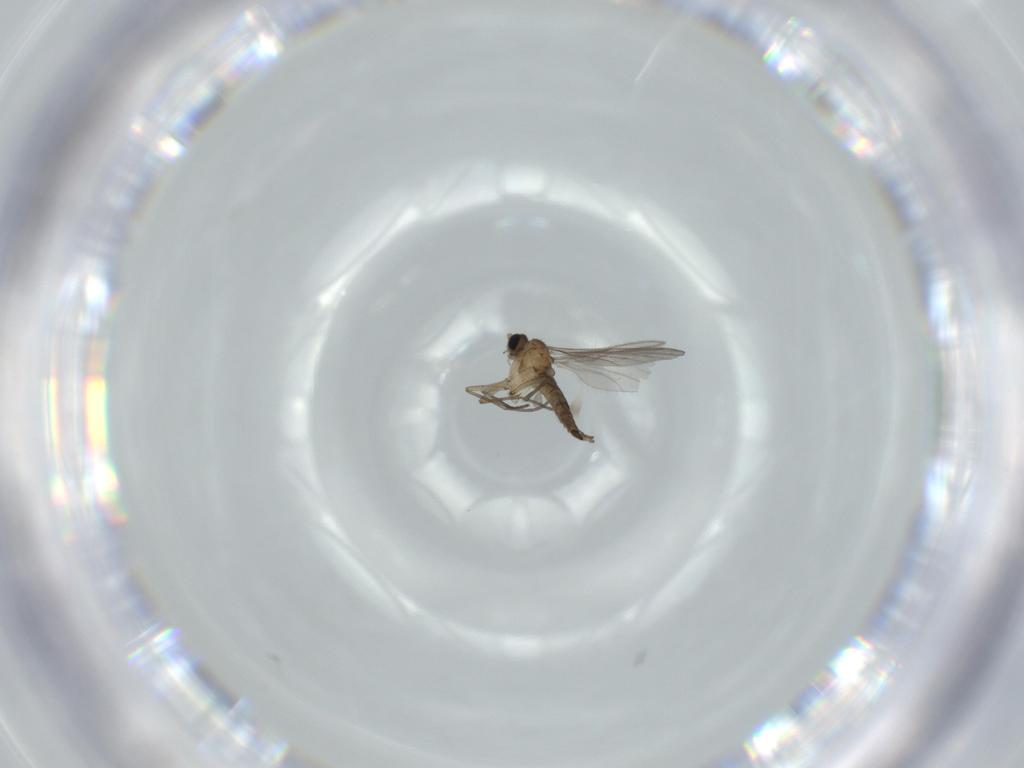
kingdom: Animalia
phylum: Arthropoda
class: Insecta
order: Diptera
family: Sciaridae
